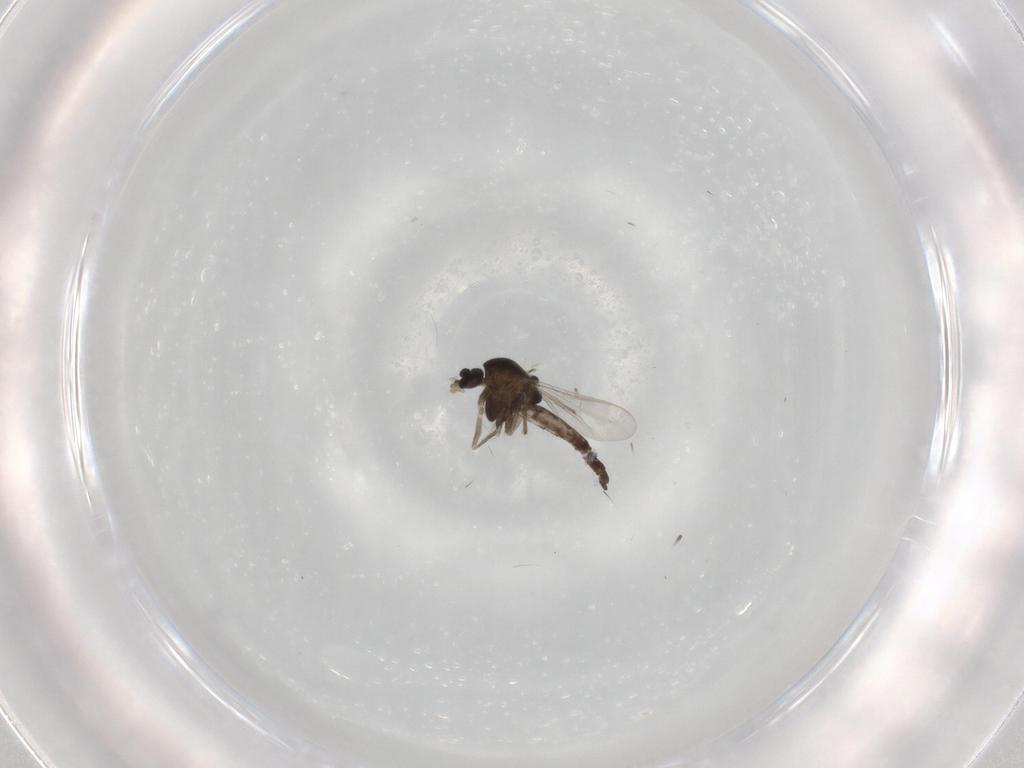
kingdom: Animalia
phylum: Arthropoda
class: Insecta
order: Diptera
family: Chironomidae
